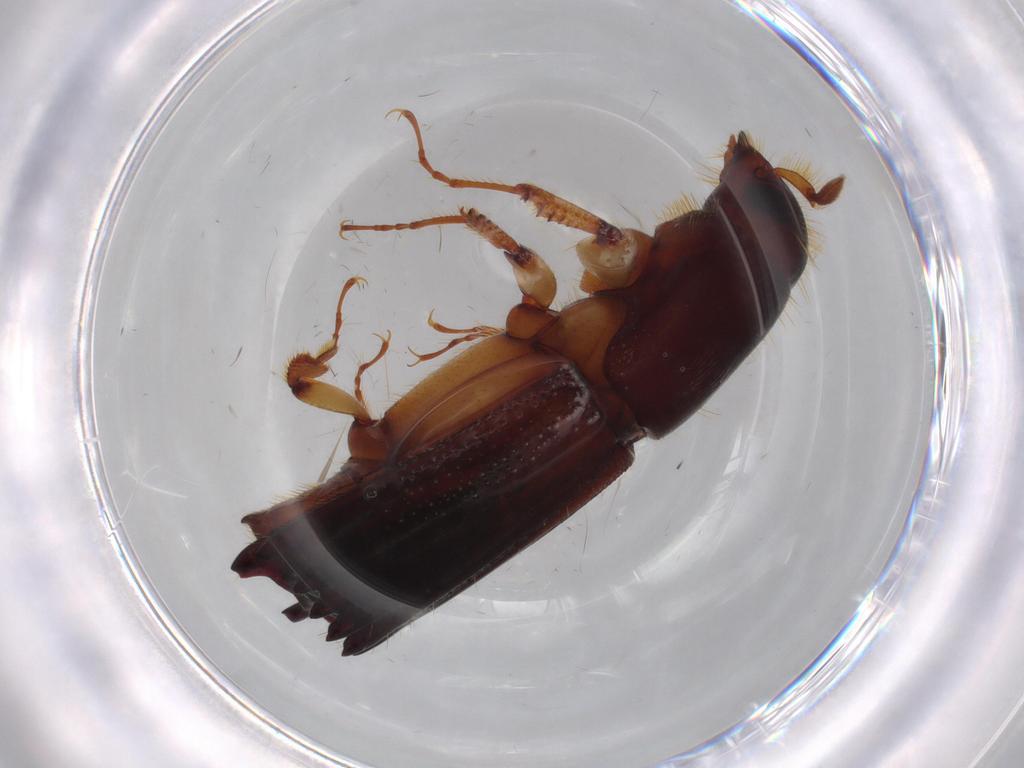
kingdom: Animalia
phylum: Arthropoda
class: Insecta
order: Coleoptera
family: Curculionidae
